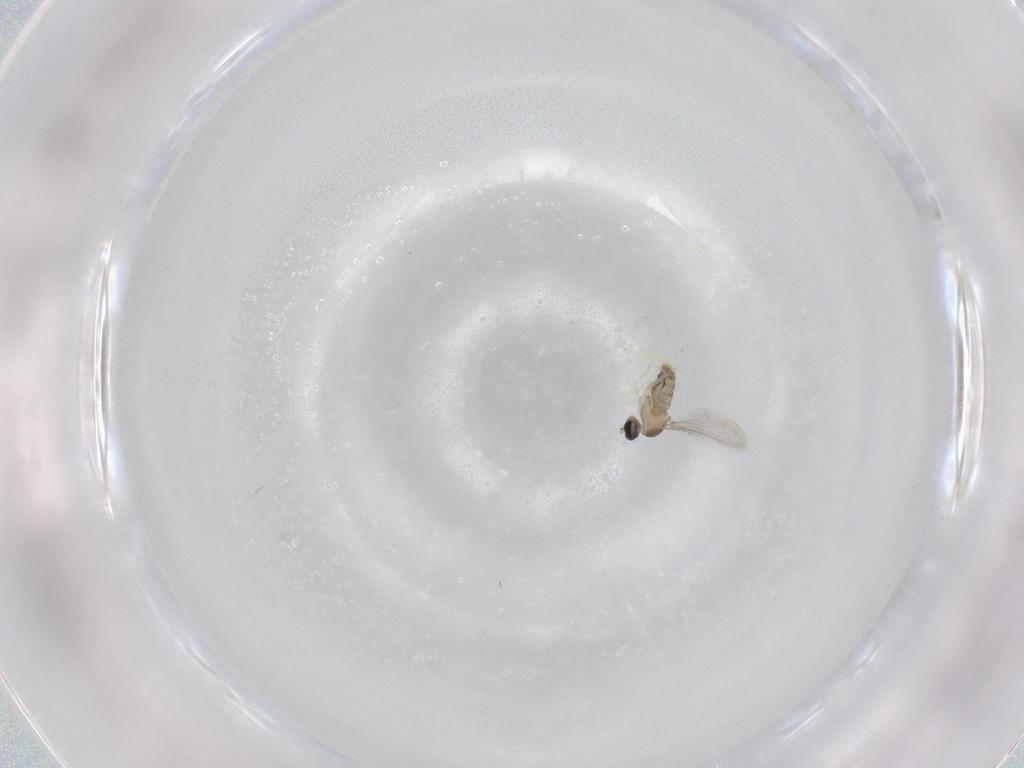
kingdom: Animalia
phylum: Arthropoda
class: Insecta
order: Diptera
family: Cecidomyiidae
